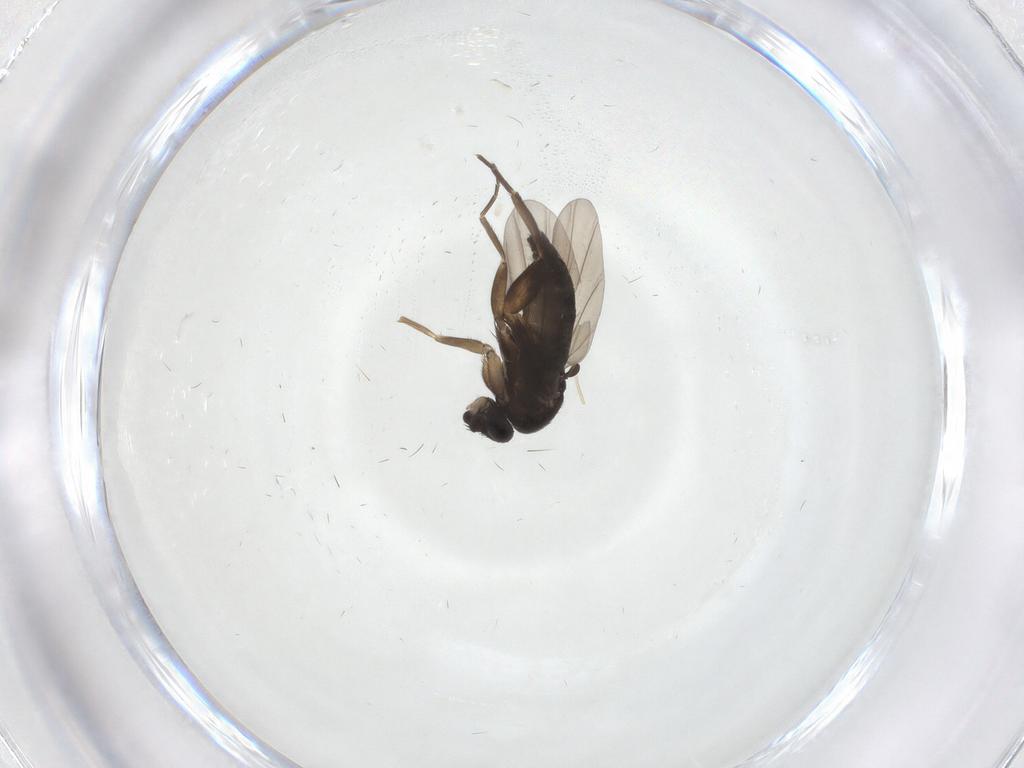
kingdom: Animalia
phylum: Arthropoda
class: Insecta
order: Diptera
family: Phoridae
